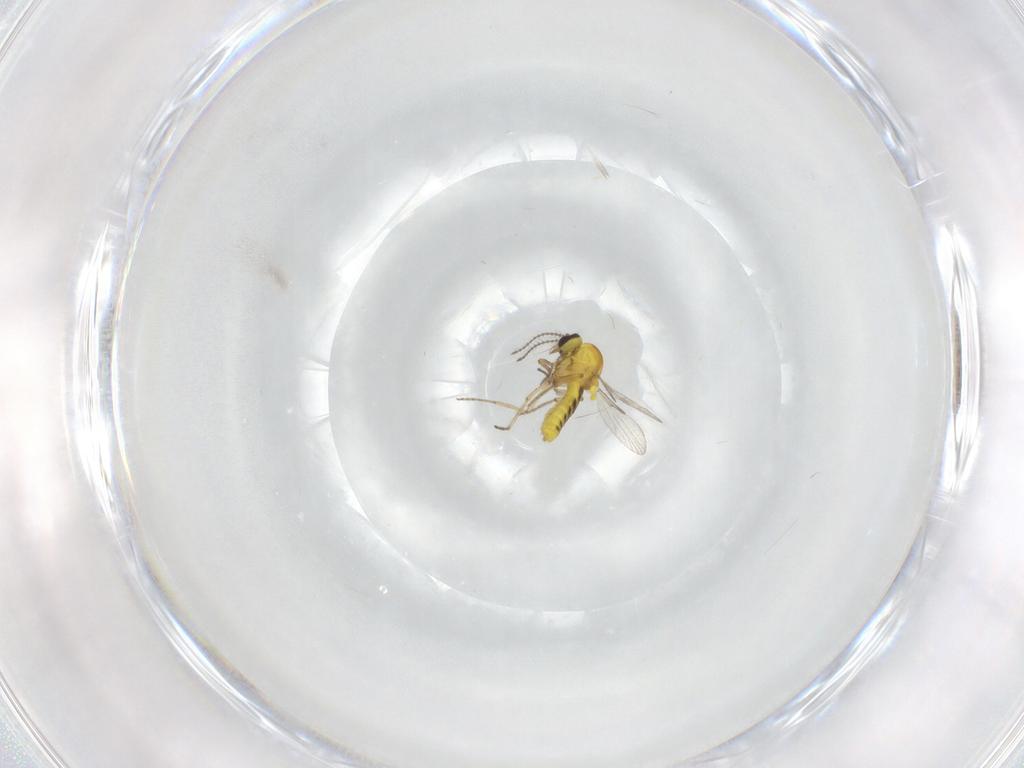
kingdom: Animalia
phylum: Arthropoda
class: Insecta
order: Diptera
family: Ceratopogonidae
